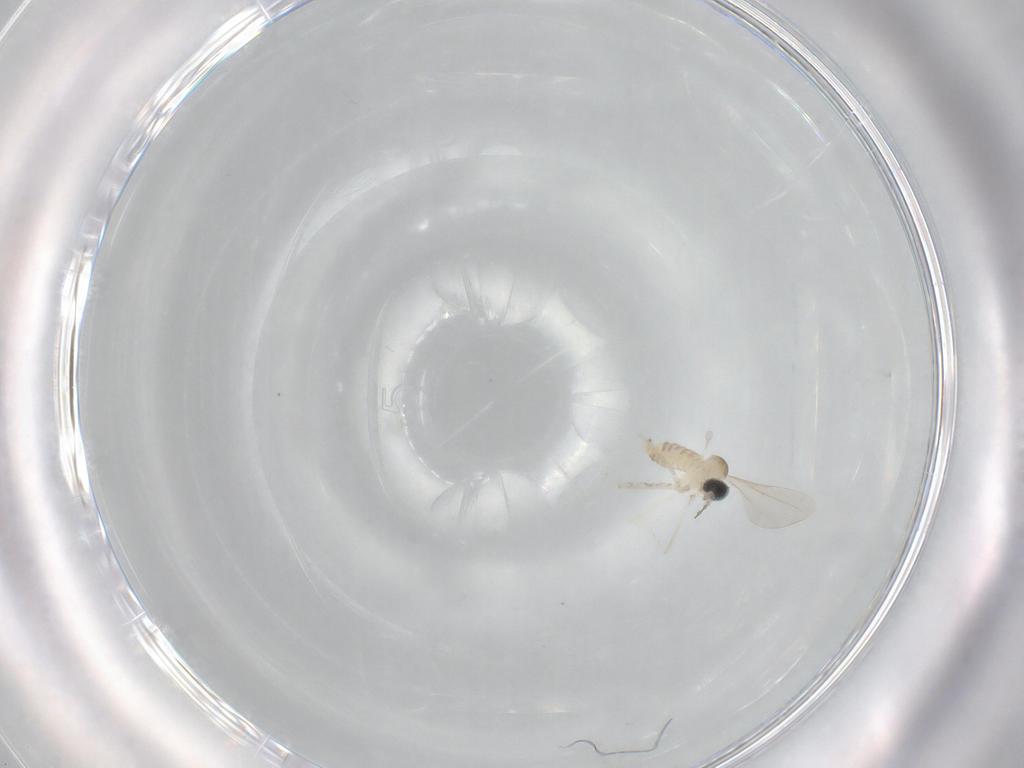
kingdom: Animalia
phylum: Arthropoda
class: Insecta
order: Diptera
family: Cecidomyiidae
